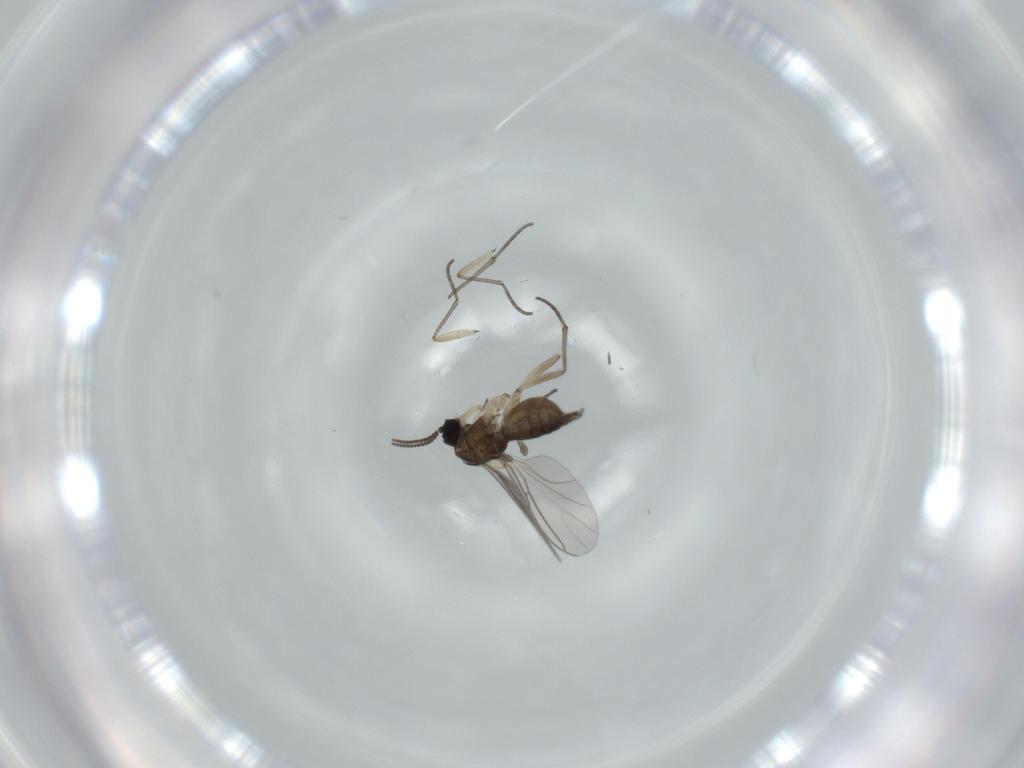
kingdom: Animalia
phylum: Arthropoda
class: Insecta
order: Diptera
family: Sciaridae
